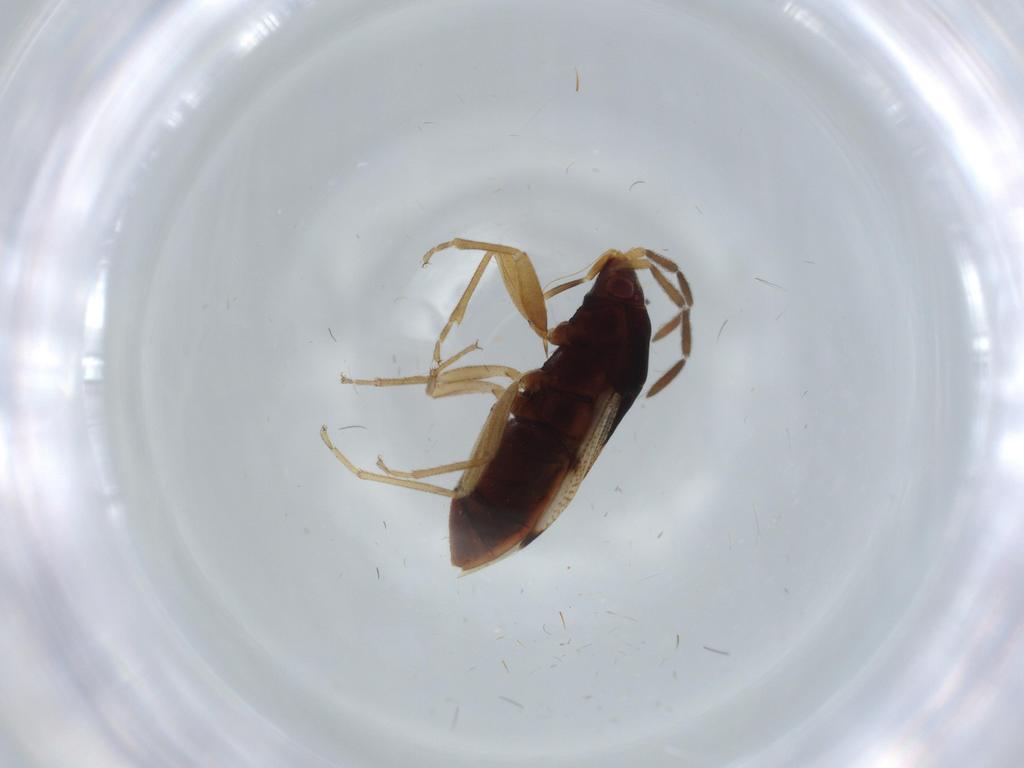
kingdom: Animalia
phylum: Arthropoda
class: Insecta
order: Hemiptera
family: Rhyparochromidae
